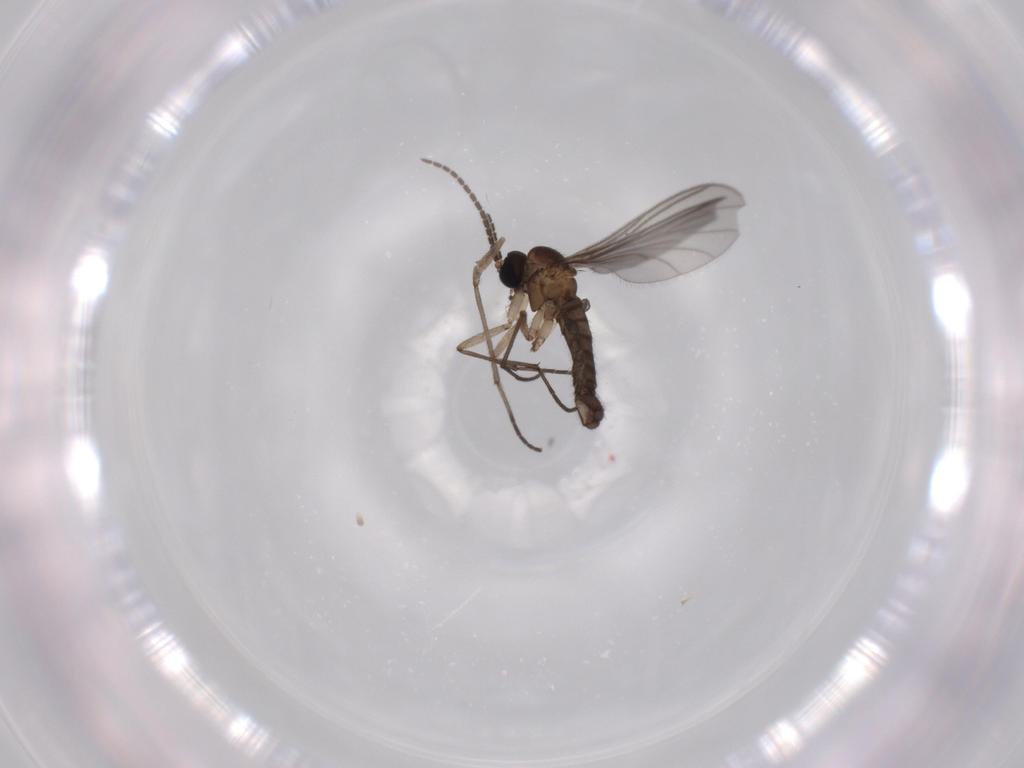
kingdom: Animalia
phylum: Arthropoda
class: Insecta
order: Diptera
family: Sciaridae
